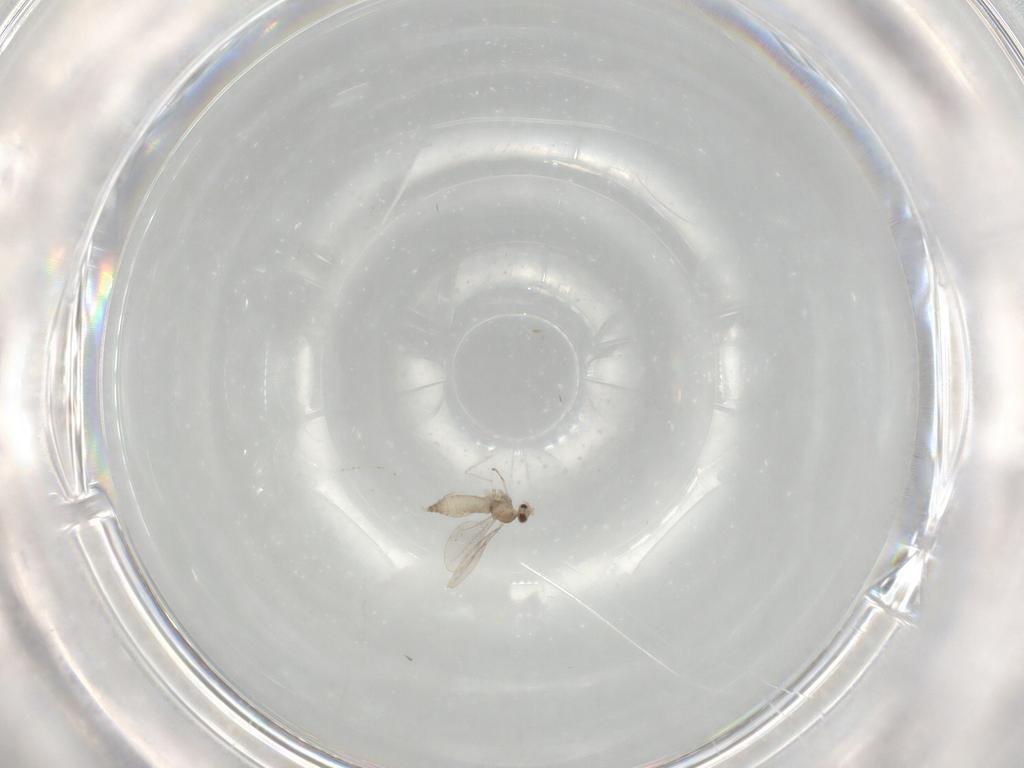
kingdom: Animalia
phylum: Arthropoda
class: Insecta
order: Diptera
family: Cecidomyiidae
